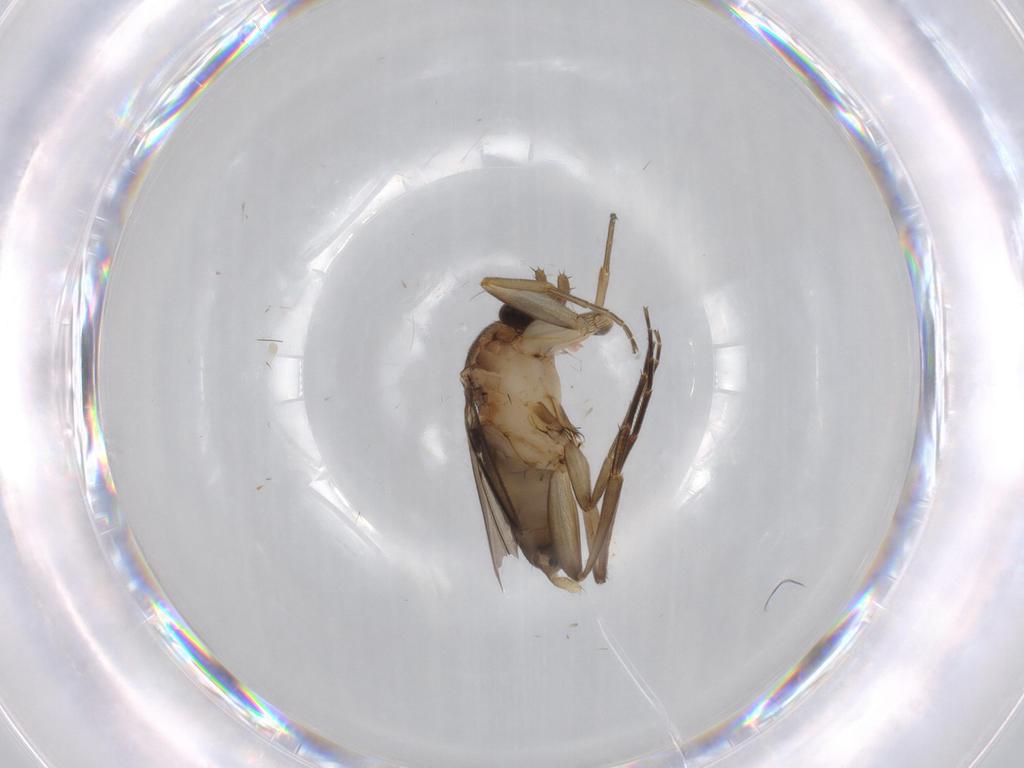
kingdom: Animalia
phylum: Arthropoda
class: Insecta
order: Diptera
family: Phoridae
